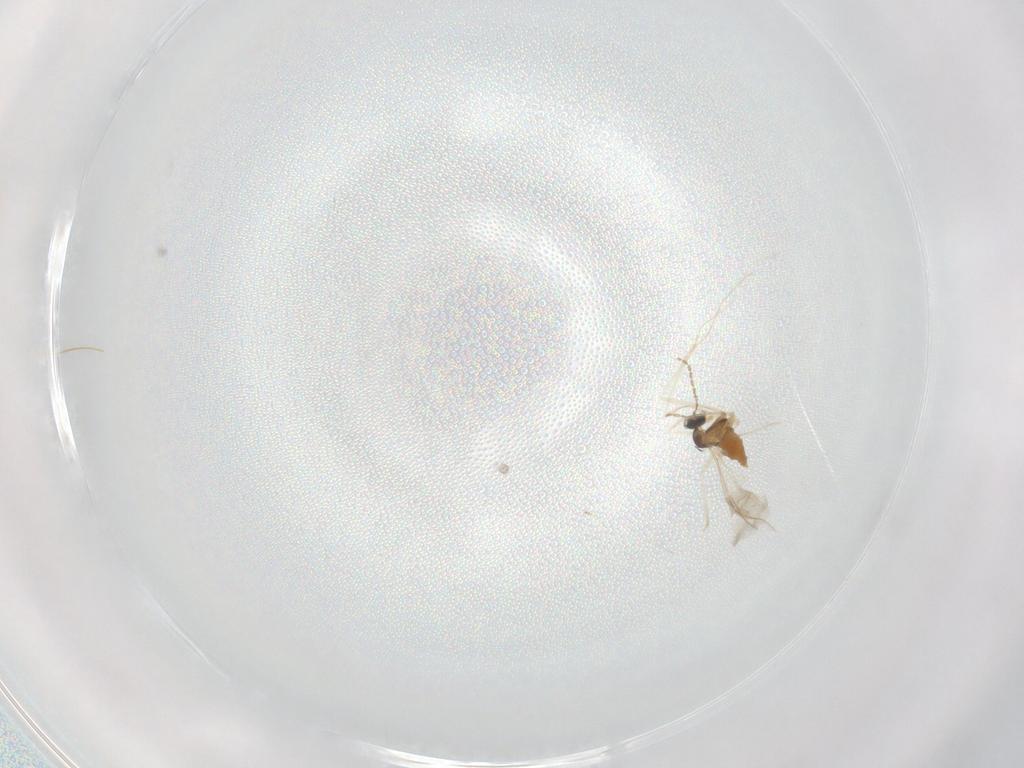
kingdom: Animalia
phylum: Arthropoda
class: Insecta
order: Diptera
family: Cecidomyiidae
